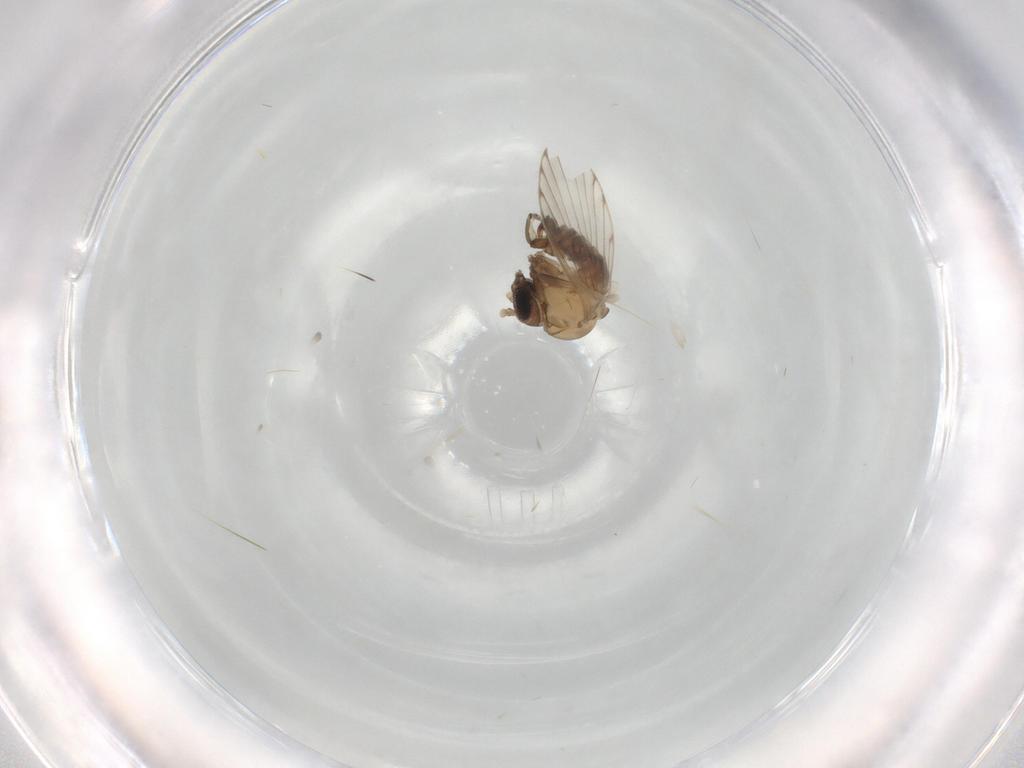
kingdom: Animalia
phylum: Arthropoda
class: Insecta
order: Diptera
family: Psychodidae
